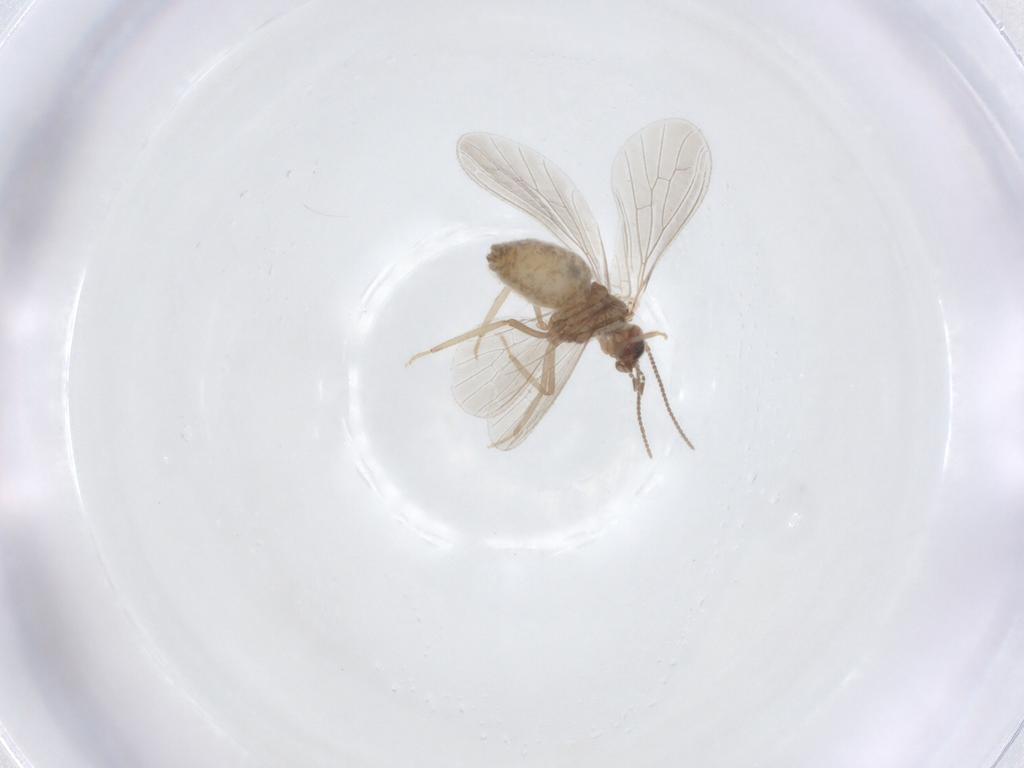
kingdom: Animalia
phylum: Arthropoda
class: Insecta
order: Neuroptera
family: Coniopterygidae
